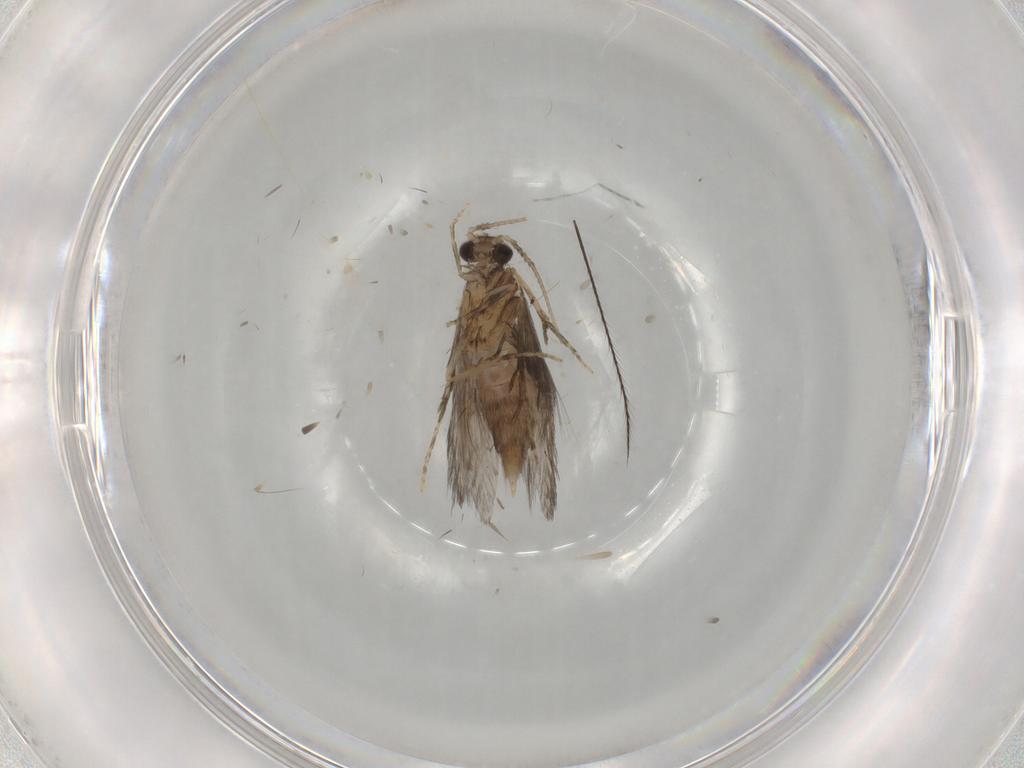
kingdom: Animalia
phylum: Arthropoda
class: Insecta
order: Trichoptera
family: Hydroptilidae
